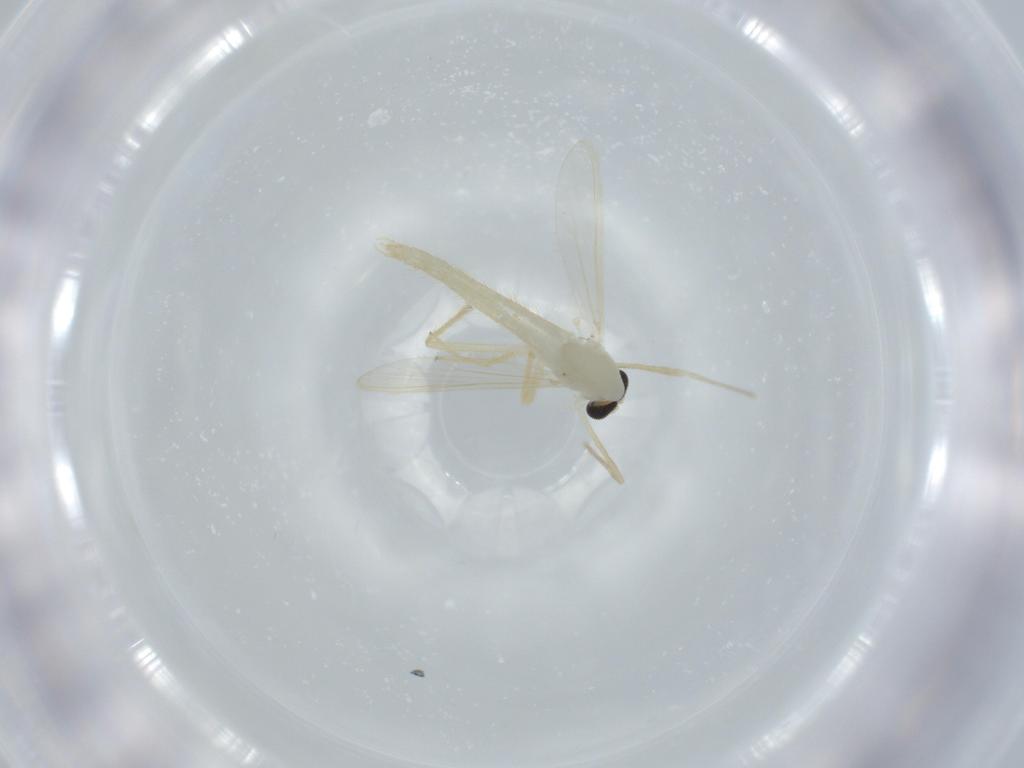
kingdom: Animalia
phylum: Arthropoda
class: Insecta
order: Diptera
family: Chironomidae
